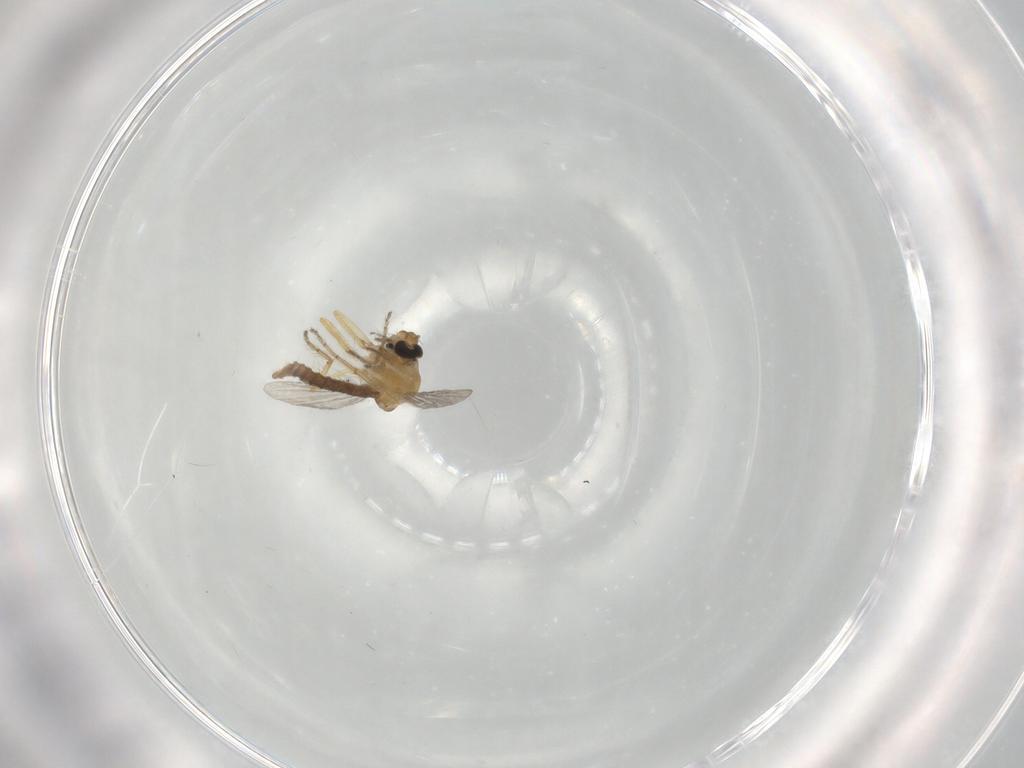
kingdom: Animalia
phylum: Arthropoda
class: Insecta
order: Diptera
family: Ceratopogonidae
